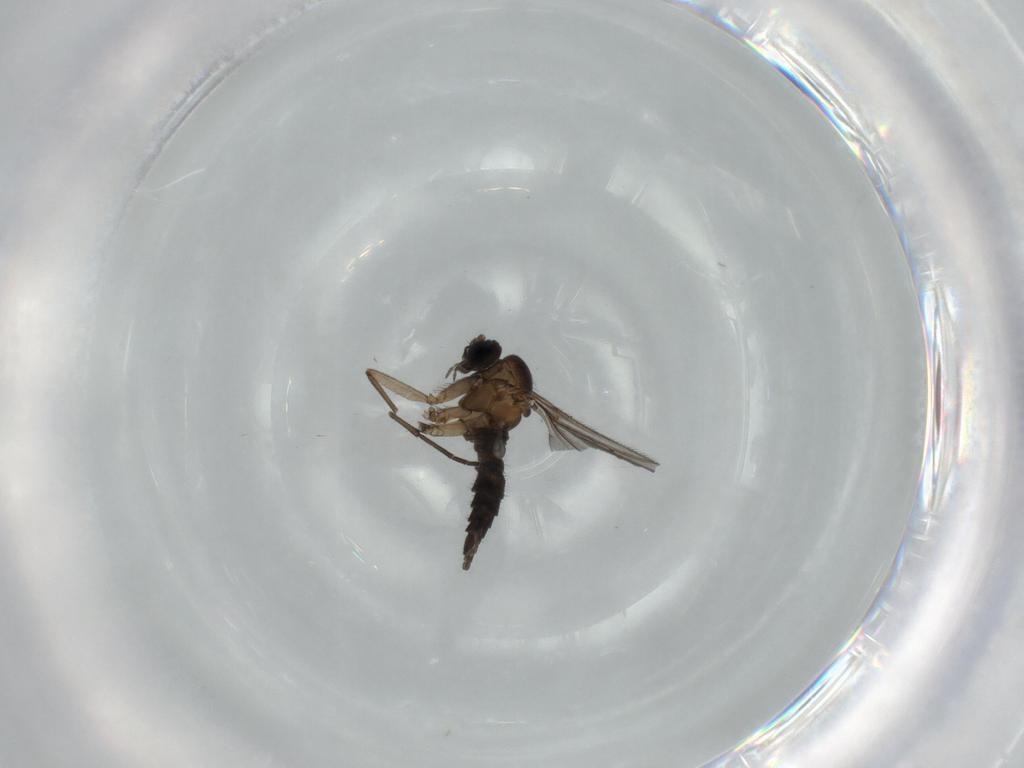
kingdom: Animalia
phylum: Arthropoda
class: Insecta
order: Diptera
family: Sciaridae
